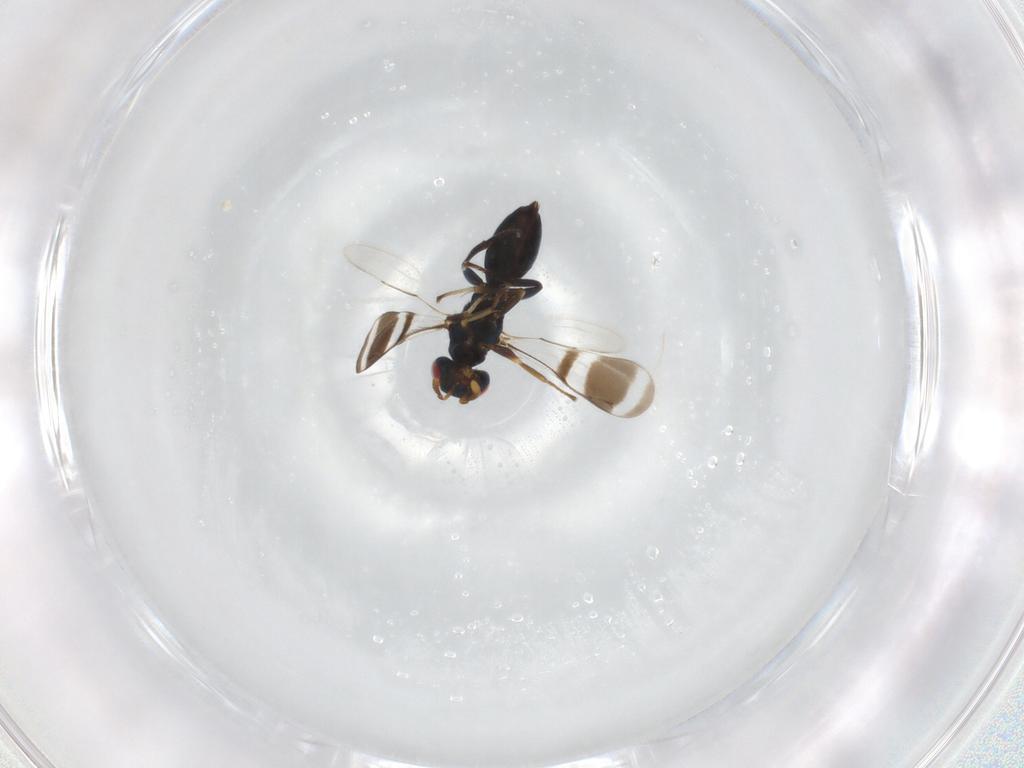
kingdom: Animalia
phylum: Arthropoda
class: Insecta
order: Hymenoptera
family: Pteromalidae
